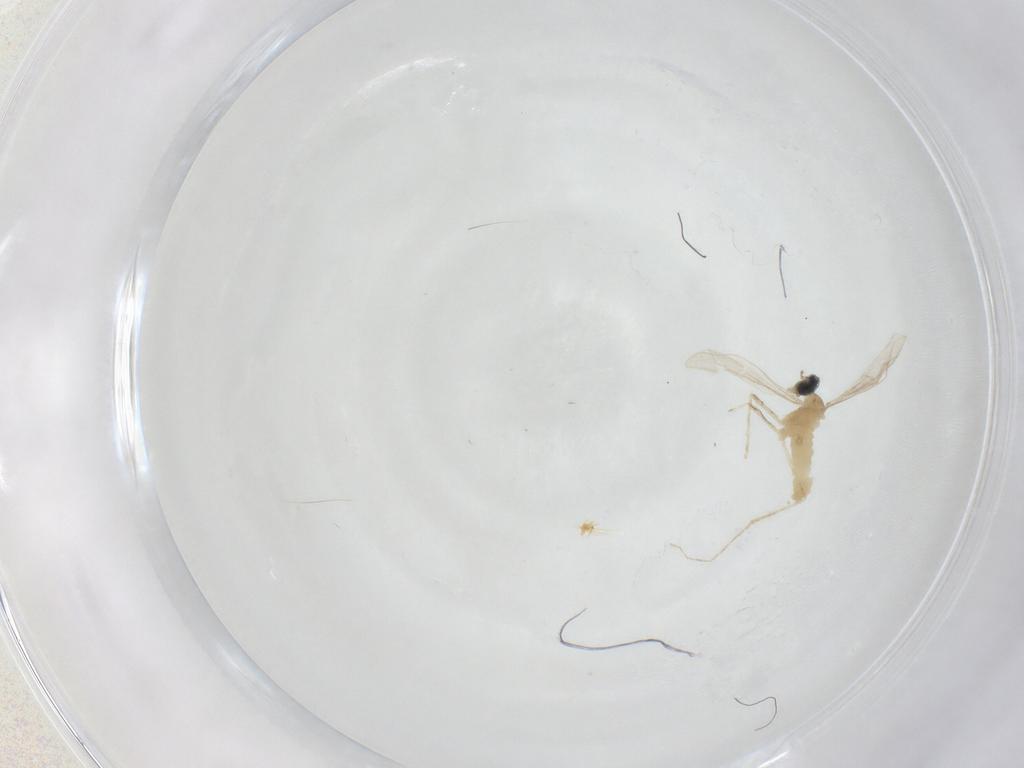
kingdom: Animalia
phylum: Arthropoda
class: Insecta
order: Diptera
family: Cecidomyiidae
